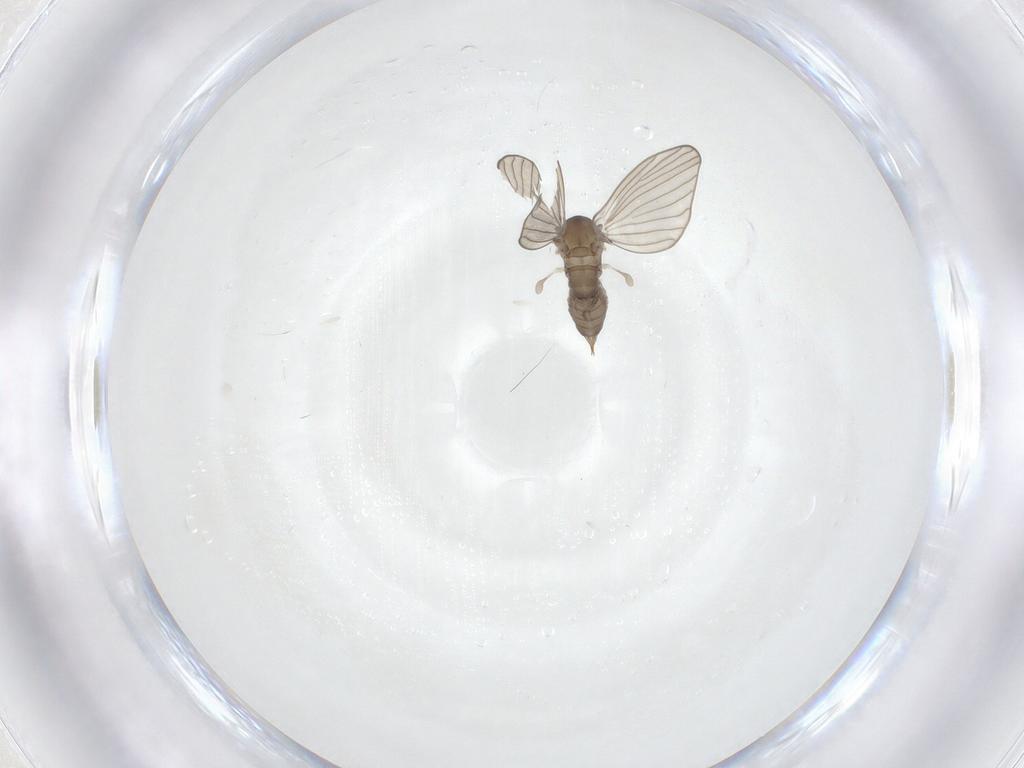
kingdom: Animalia
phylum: Arthropoda
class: Insecta
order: Diptera
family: Psychodidae
